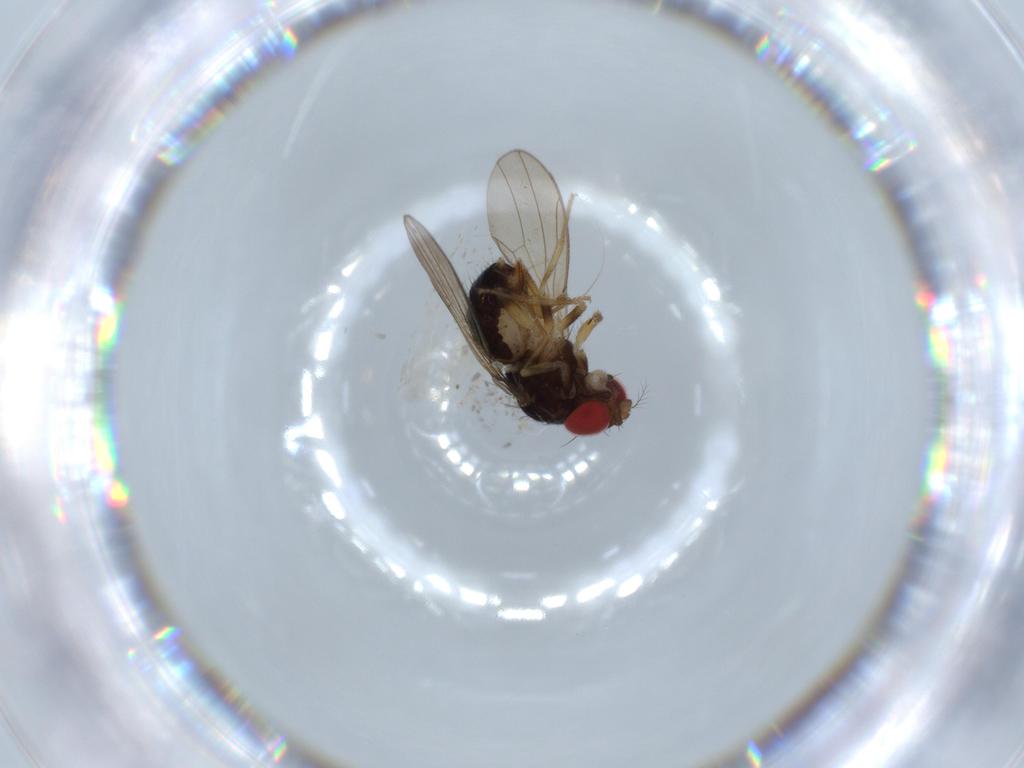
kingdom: Animalia
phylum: Arthropoda
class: Insecta
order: Diptera
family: Drosophilidae
